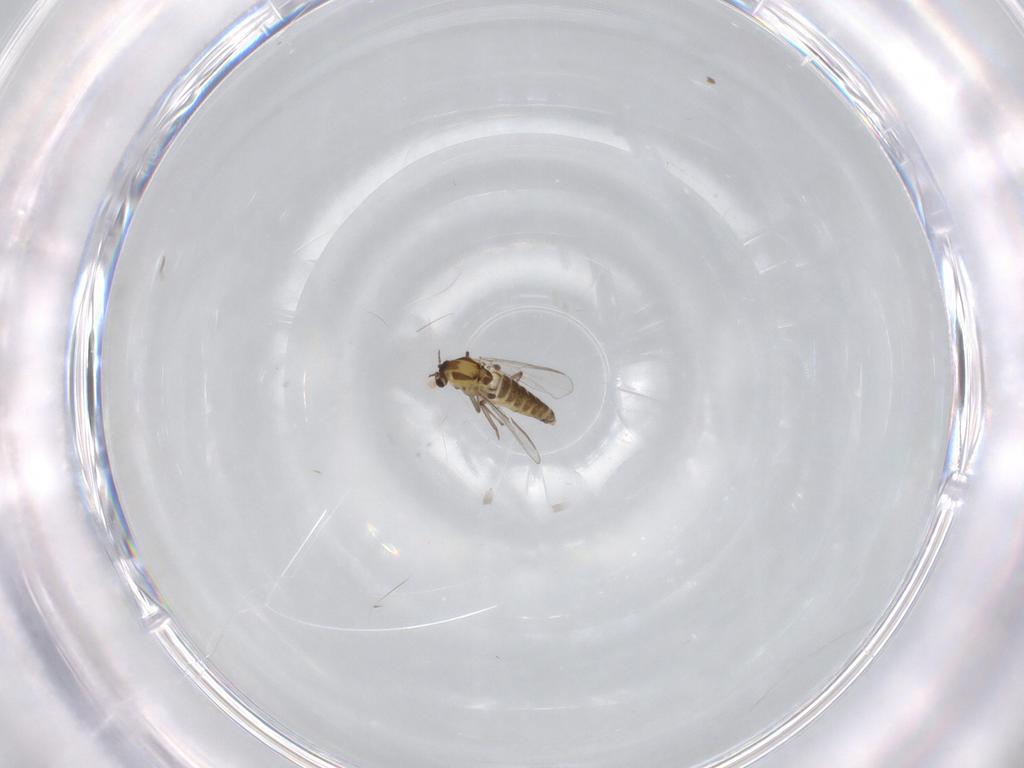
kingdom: Animalia
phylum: Arthropoda
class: Insecta
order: Diptera
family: Chironomidae
